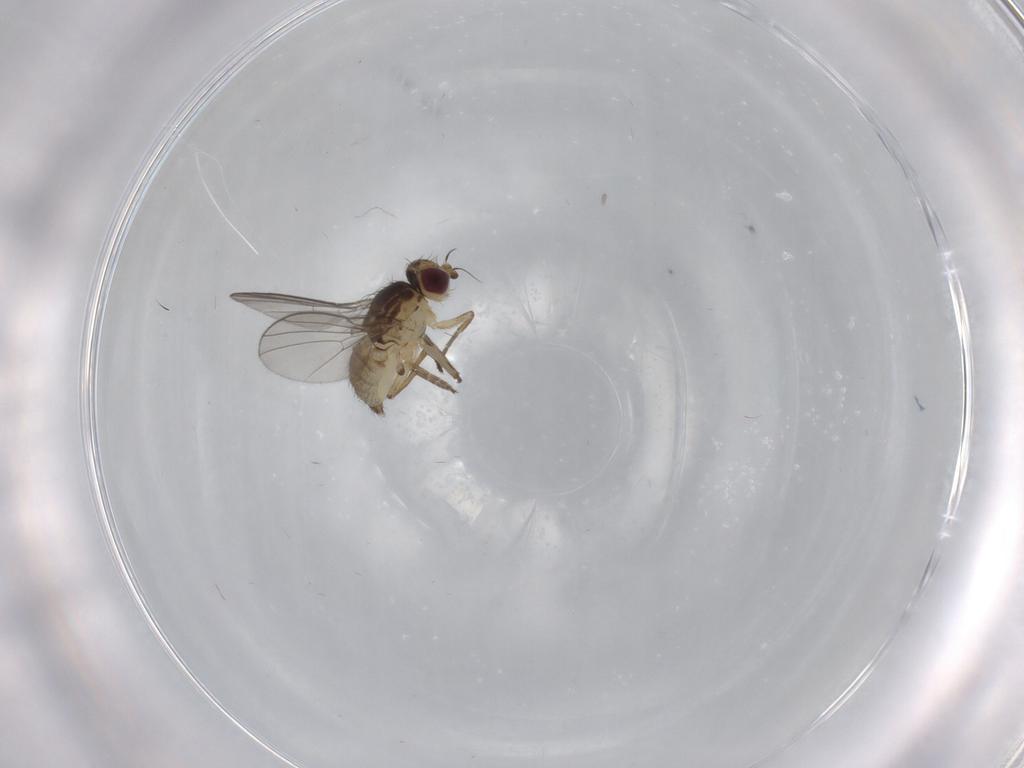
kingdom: Animalia
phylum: Arthropoda
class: Insecta
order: Diptera
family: Agromyzidae
